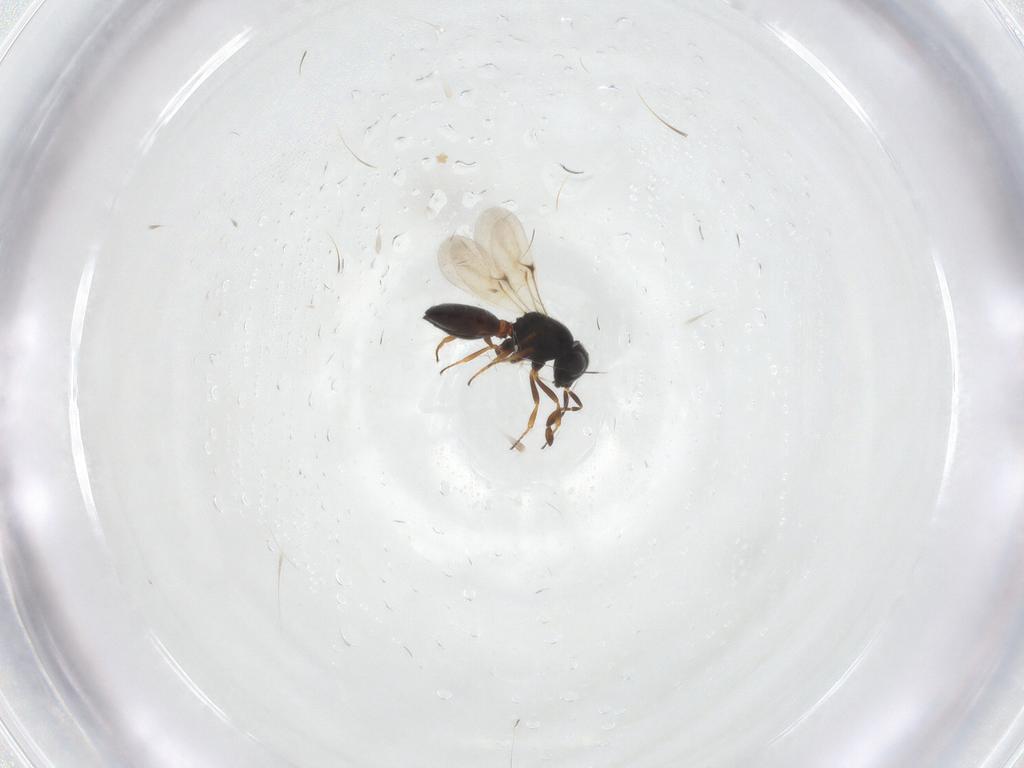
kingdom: Animalia
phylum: Arthropoda
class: Insecta
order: Hymenoptera
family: Scelionidae
